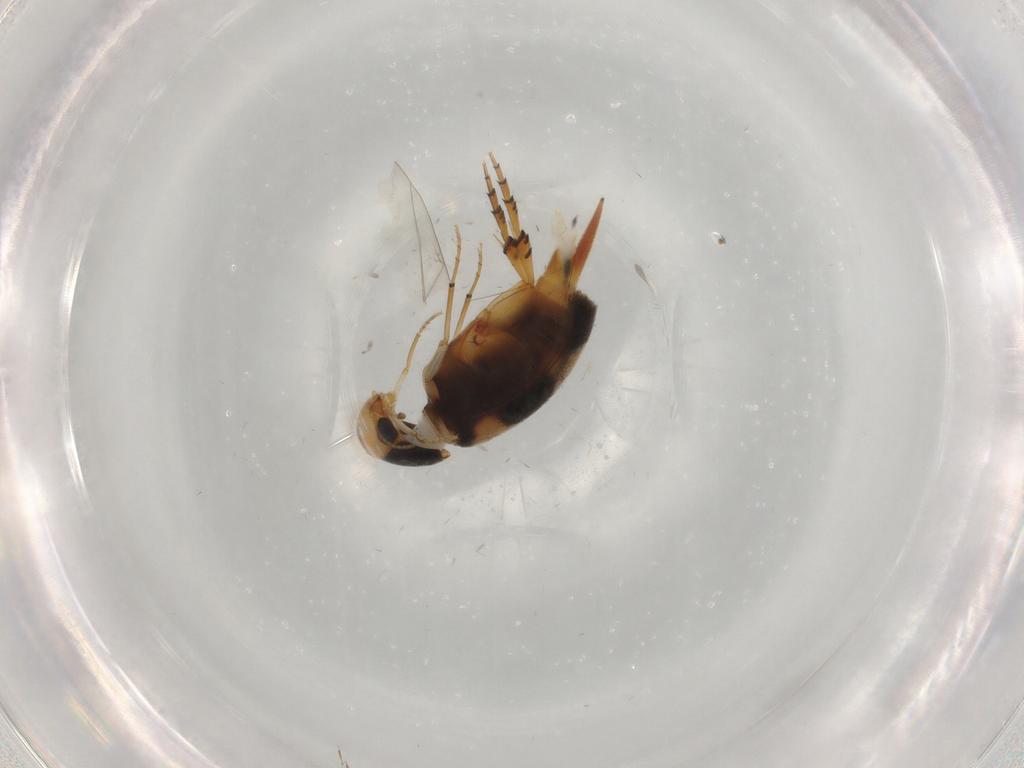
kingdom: Animalia
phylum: Arthropoda
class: Insecta
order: Coleoptera
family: Mordellidae
